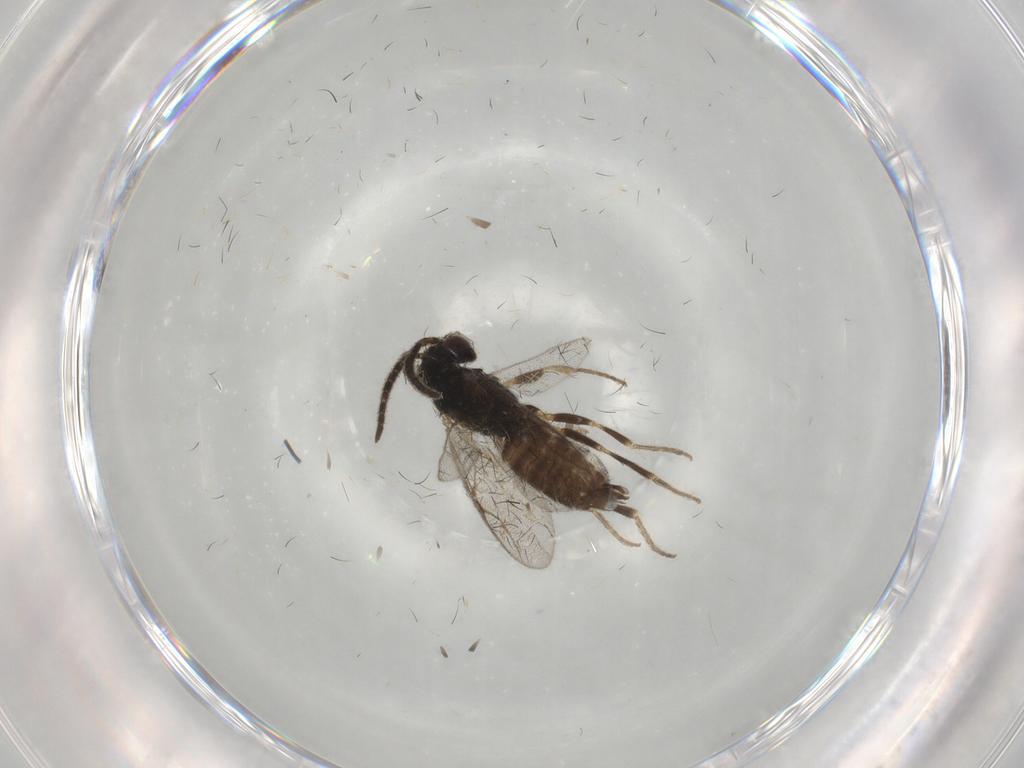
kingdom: Animalia
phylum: Arthropoda
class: Insecta
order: Hymenoptera
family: Dryinidae
